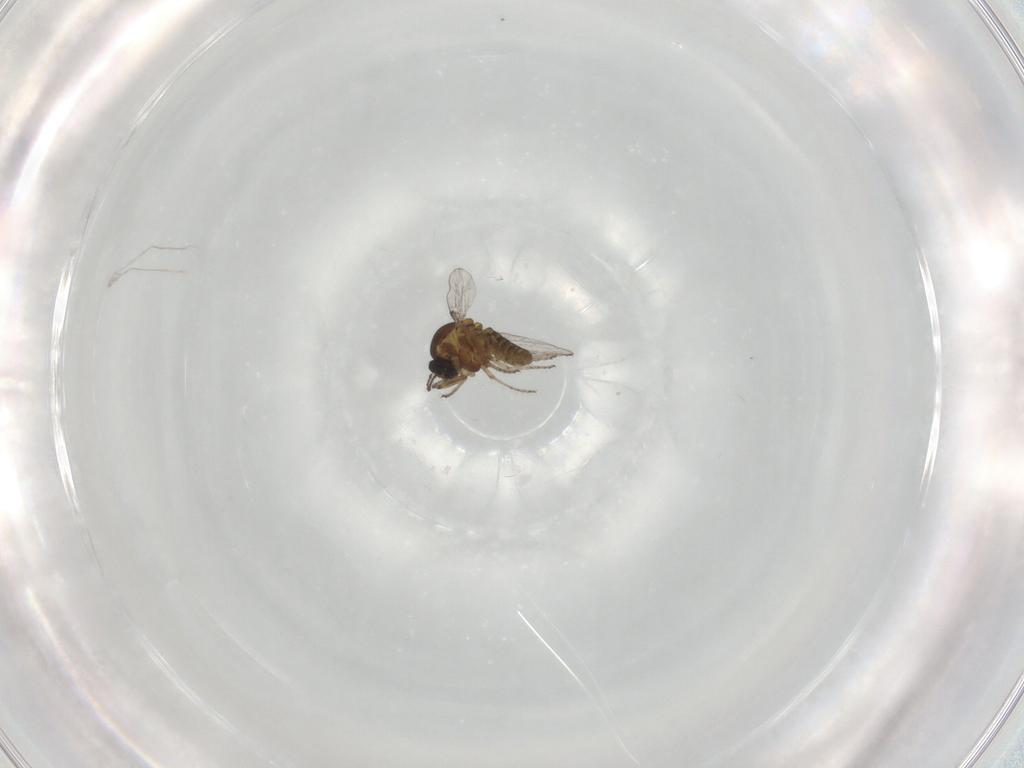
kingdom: Animalia
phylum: Arthropoda
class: Insecta
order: Diptera
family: Ceratopogonidae
